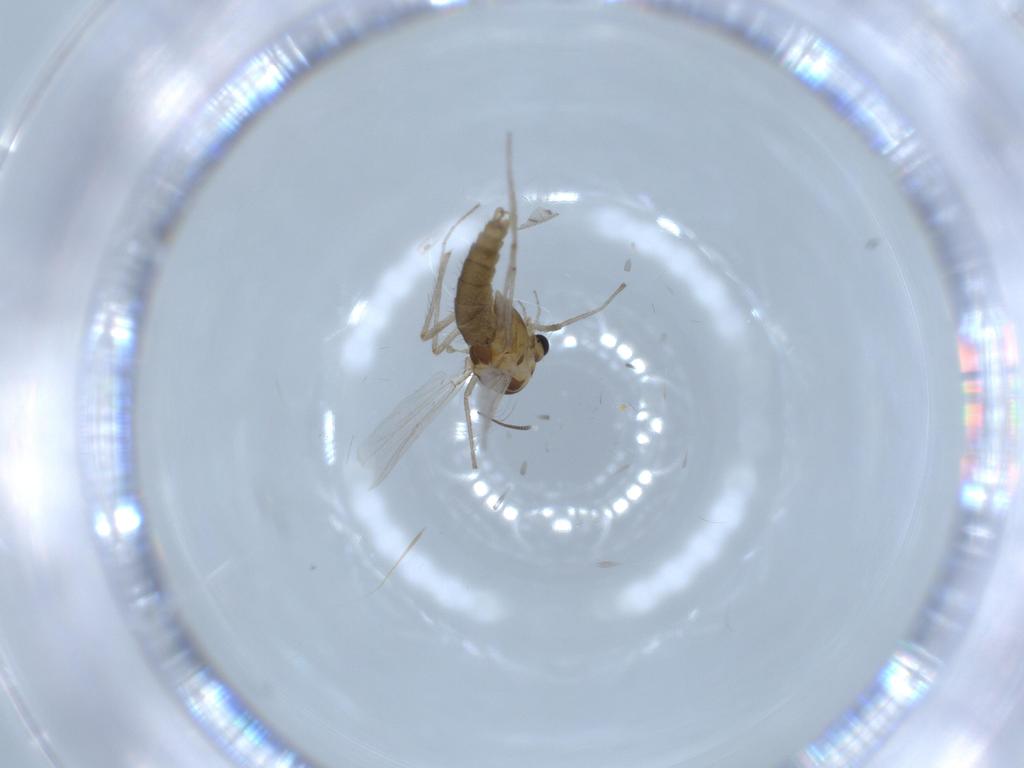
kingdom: Animalia
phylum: Arthropoda
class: Insecta
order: Diptera
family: Chironomidae
